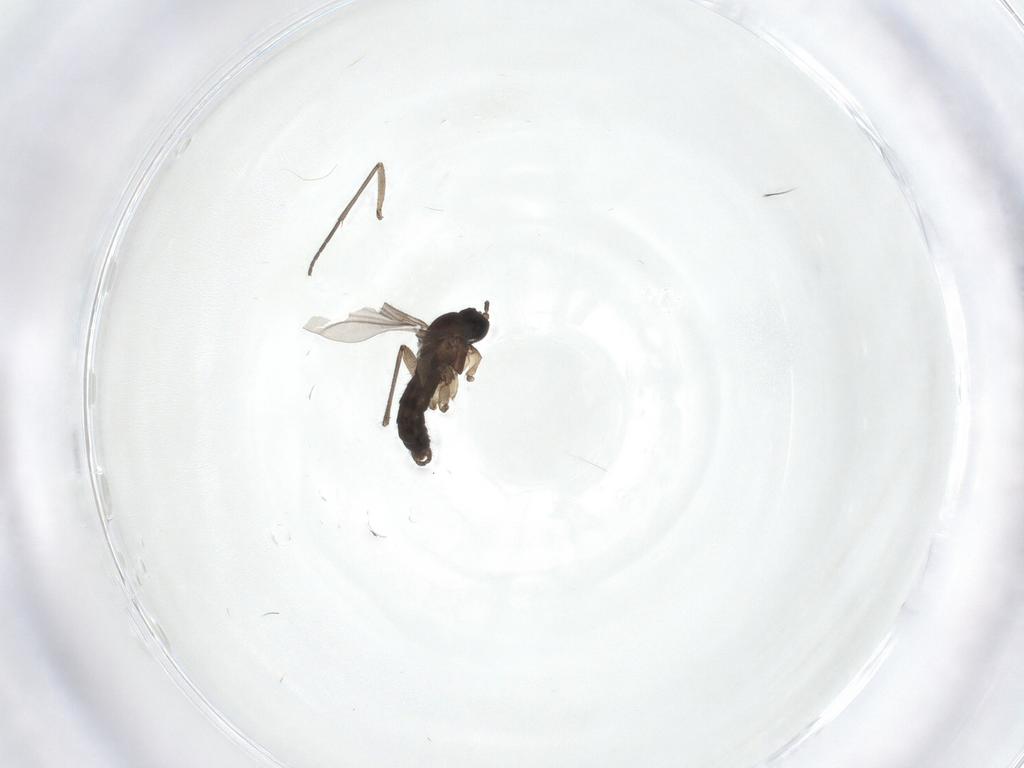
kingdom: Animalia
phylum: Arthropoda
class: Insecta
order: Diptera
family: Sciaridae
